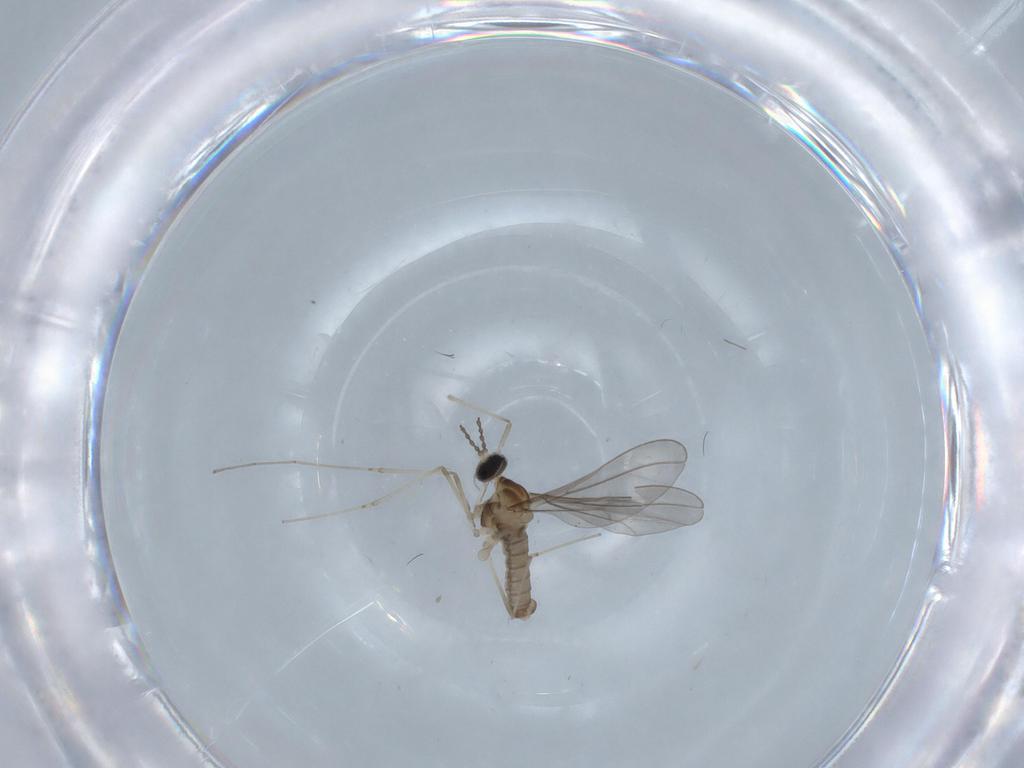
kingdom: Animalia
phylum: Arthropoda
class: Insecta
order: Diptera
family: Cecidomyiidae
